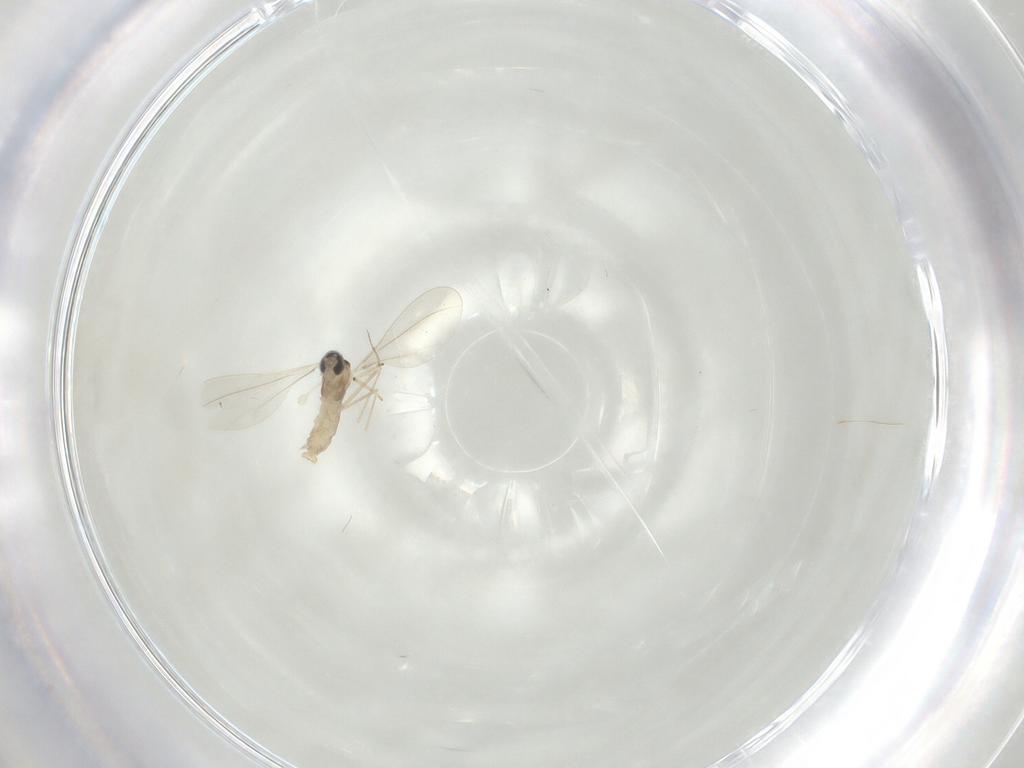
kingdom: Animalia
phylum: Arthropoda
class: Insecta
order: Diptera
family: Cecidomyiidae
